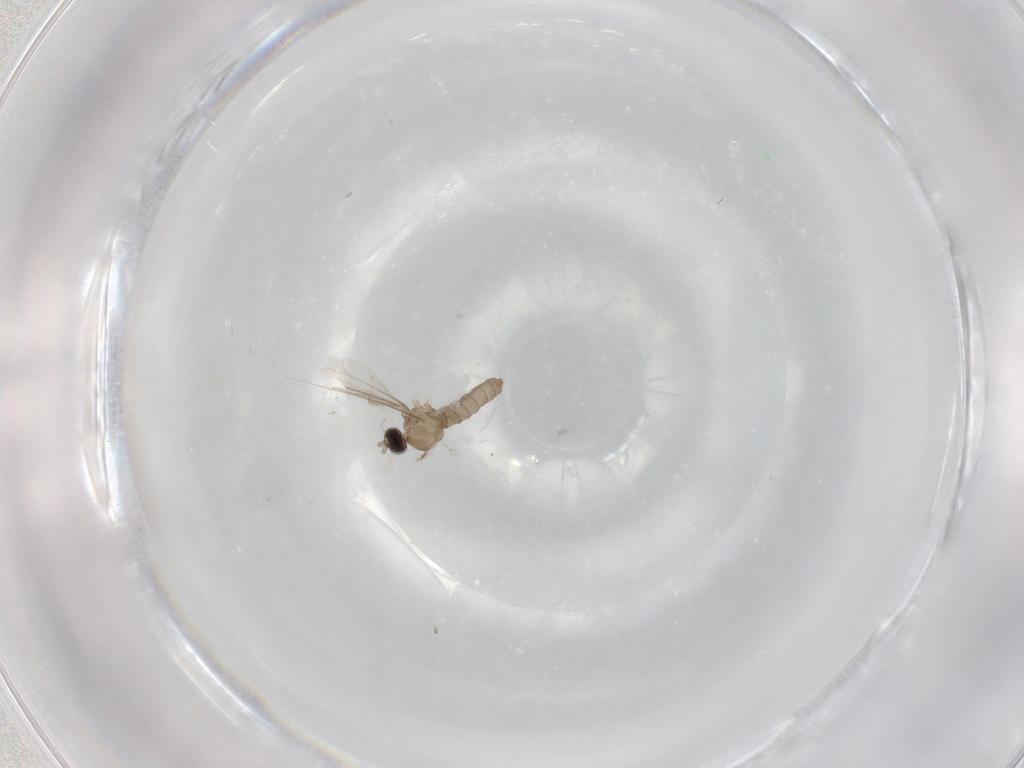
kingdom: Animalia
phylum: Arthropoda
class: Insecta
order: Diptera
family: Cecidomyiidae
